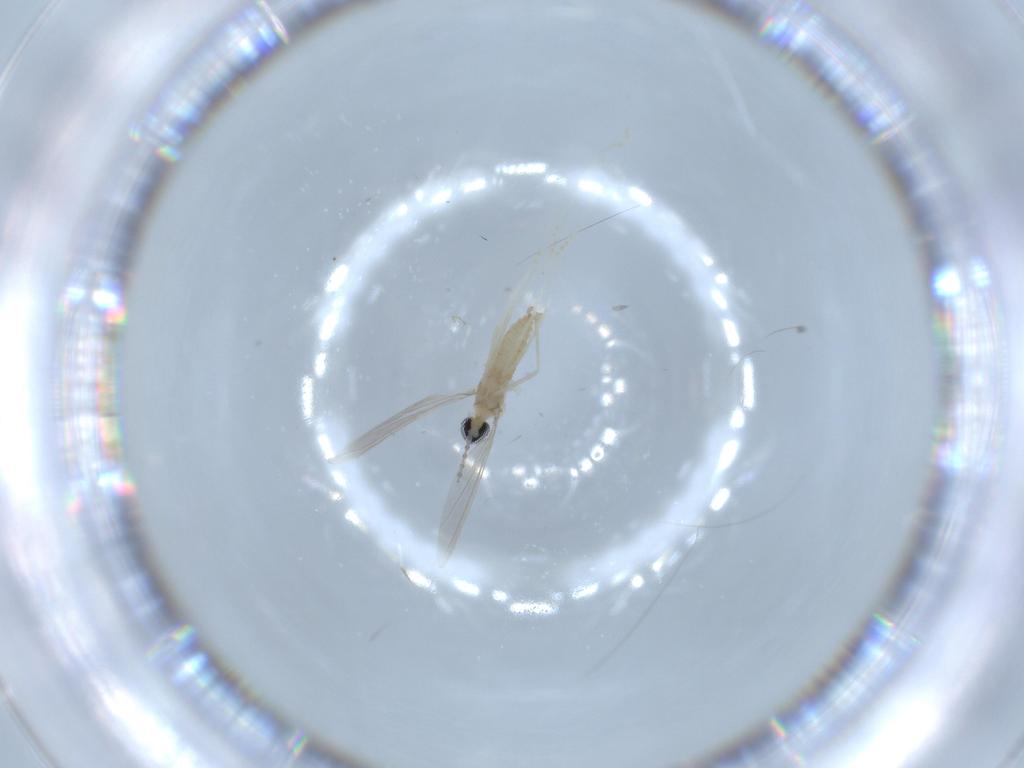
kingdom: Animalia
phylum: Arthropoda
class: Insecta
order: Diptera
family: Cecidomyiidae
